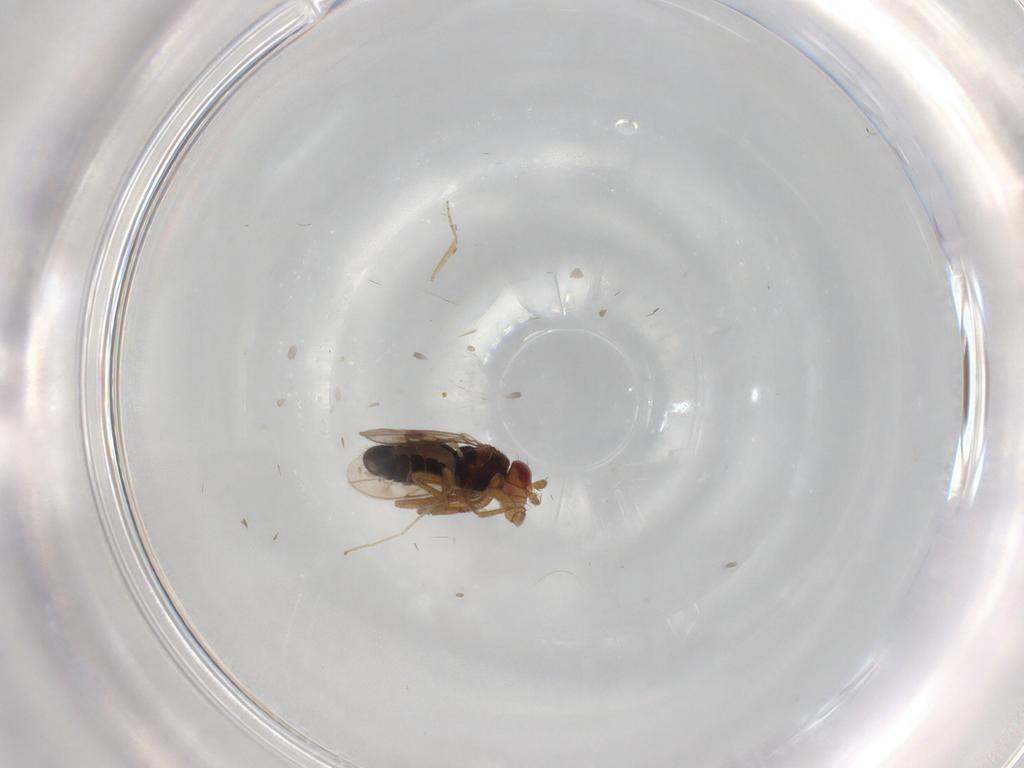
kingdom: Animalia
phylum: Arthropoda
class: Insecta
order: Diptera
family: Sphaeroceridae
